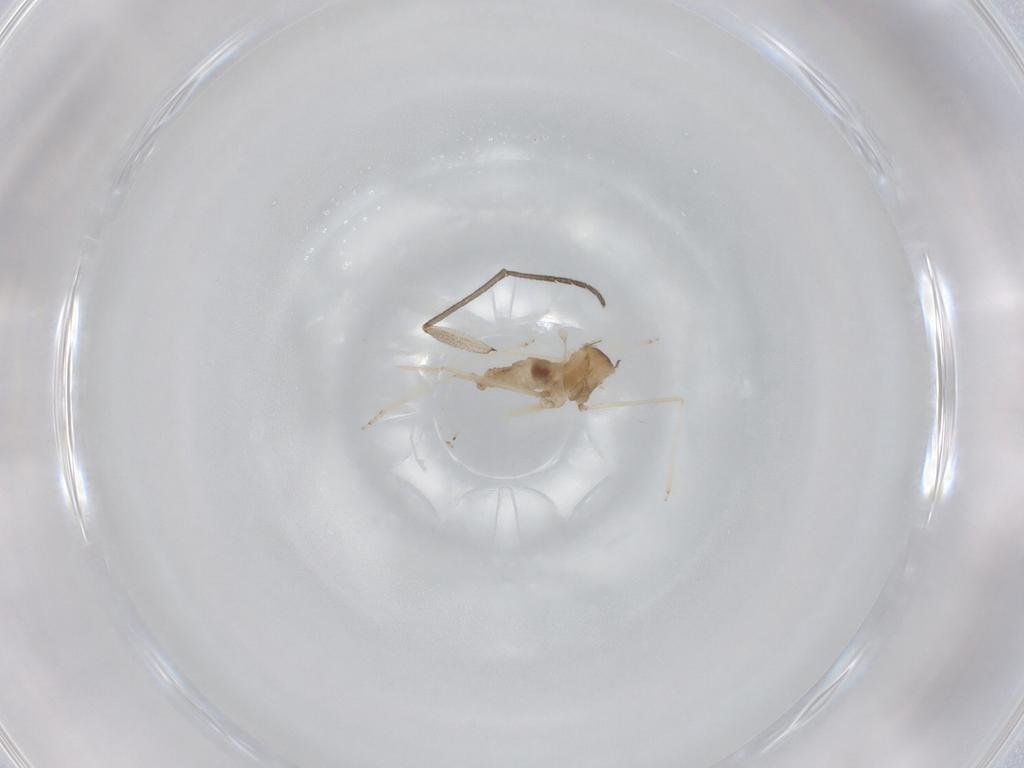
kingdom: Animalia
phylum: Arthropoda
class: Insecta
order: Diptera
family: Cecidomyiidae
